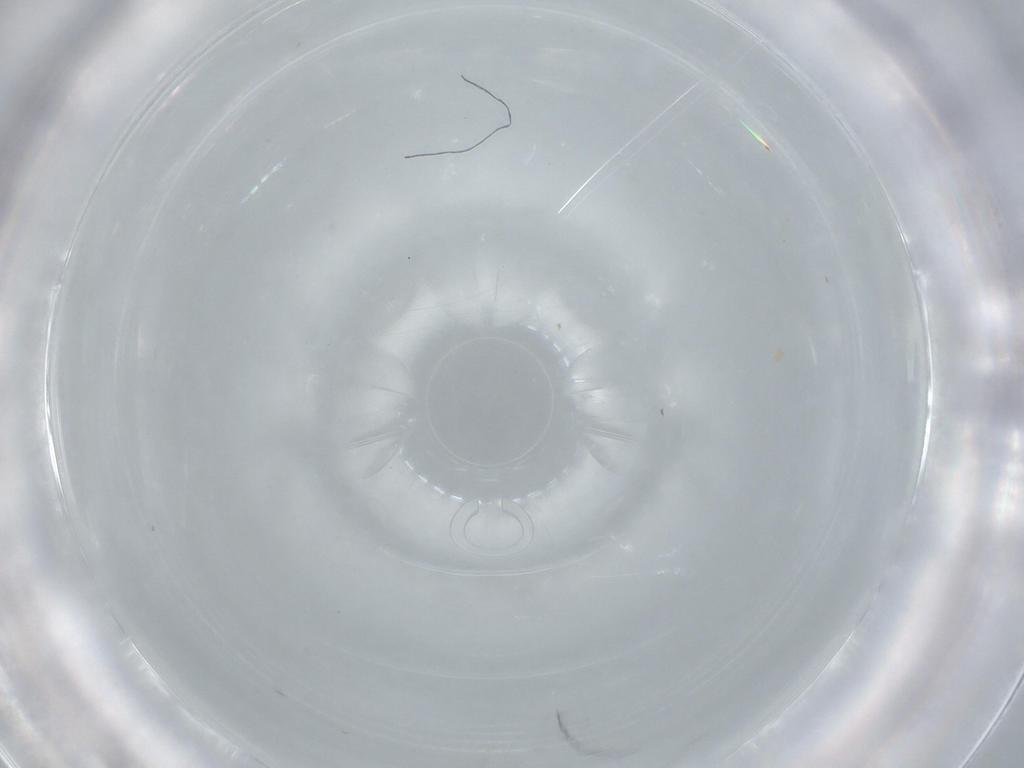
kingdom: Animalia
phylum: Arthropoda
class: Insecta
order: Diptera
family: Sciaridae
